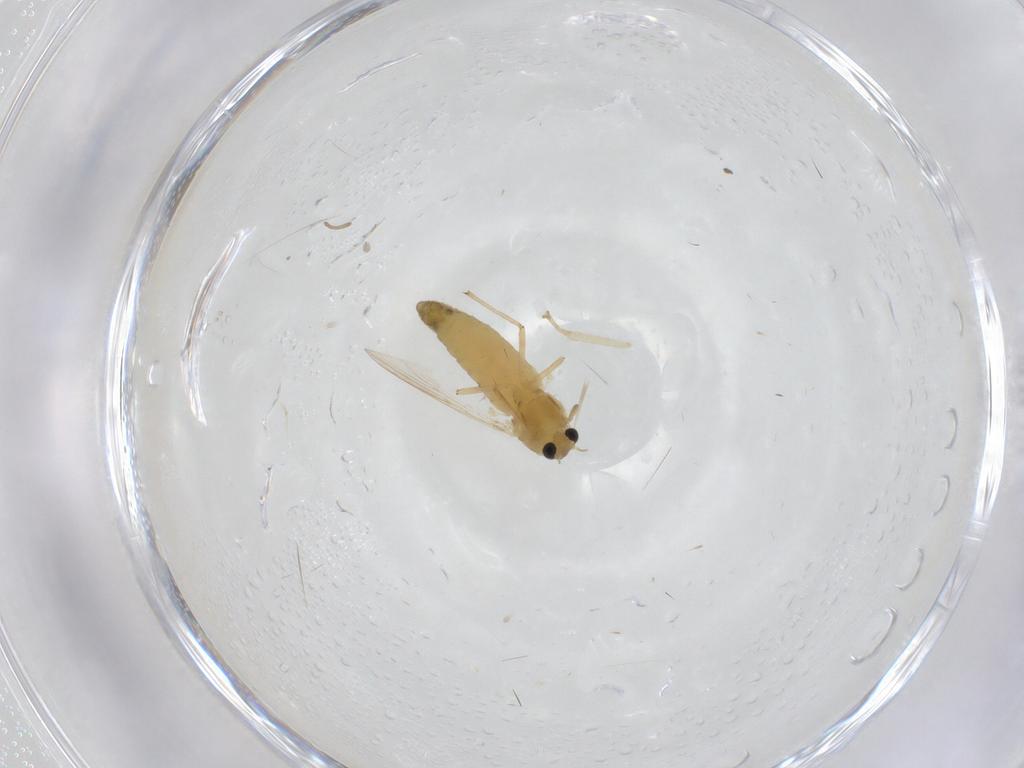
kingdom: Animalia
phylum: Arthropoda
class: Insecta
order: Diptera
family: Chironomidae
